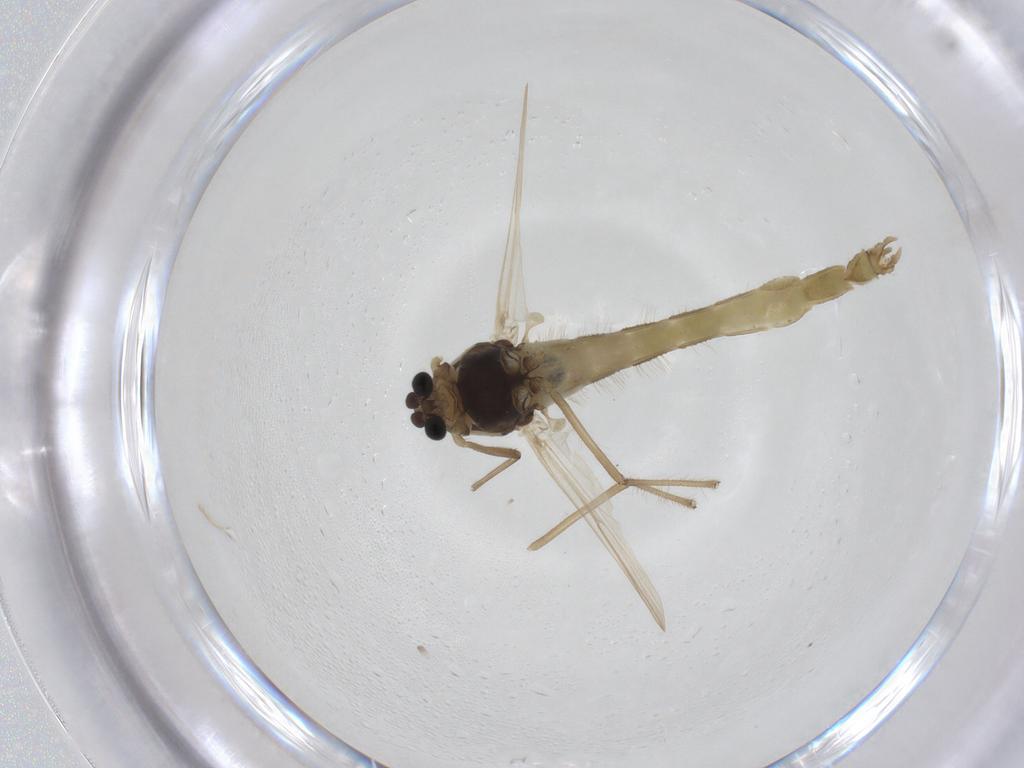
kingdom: Animalia
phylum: Arthropoda
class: Insecta
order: Diptera
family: Chironomidae
